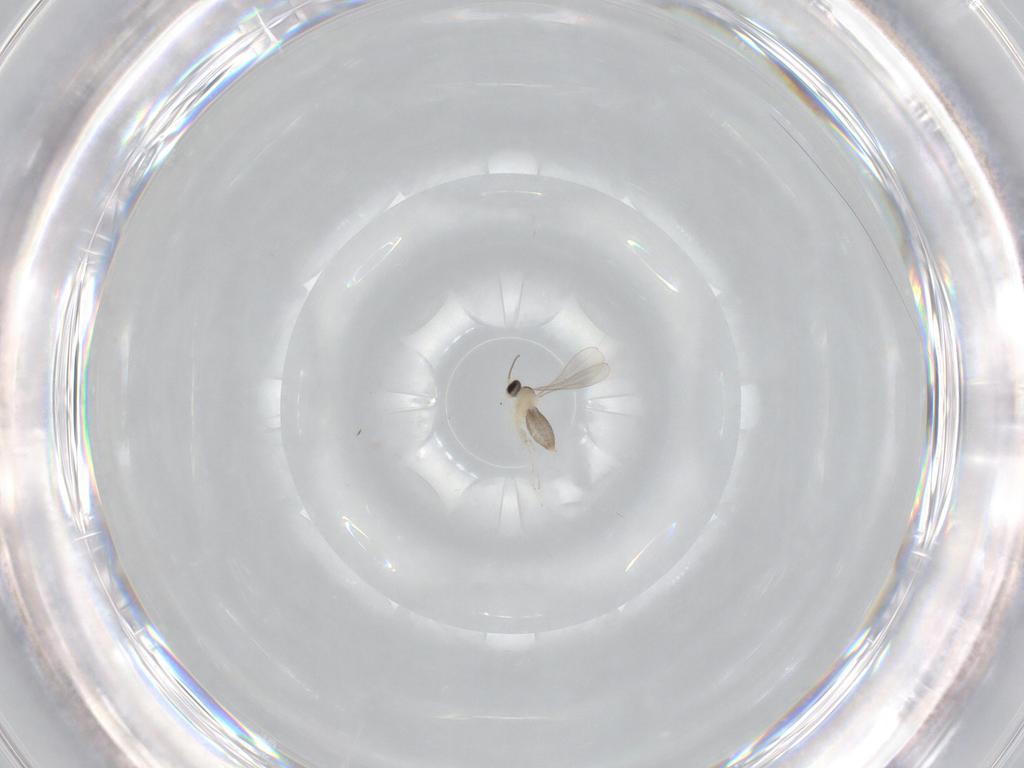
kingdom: Animalia
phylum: Arthropoda
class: Insecta
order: Diptera
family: Cecidomyiidae
